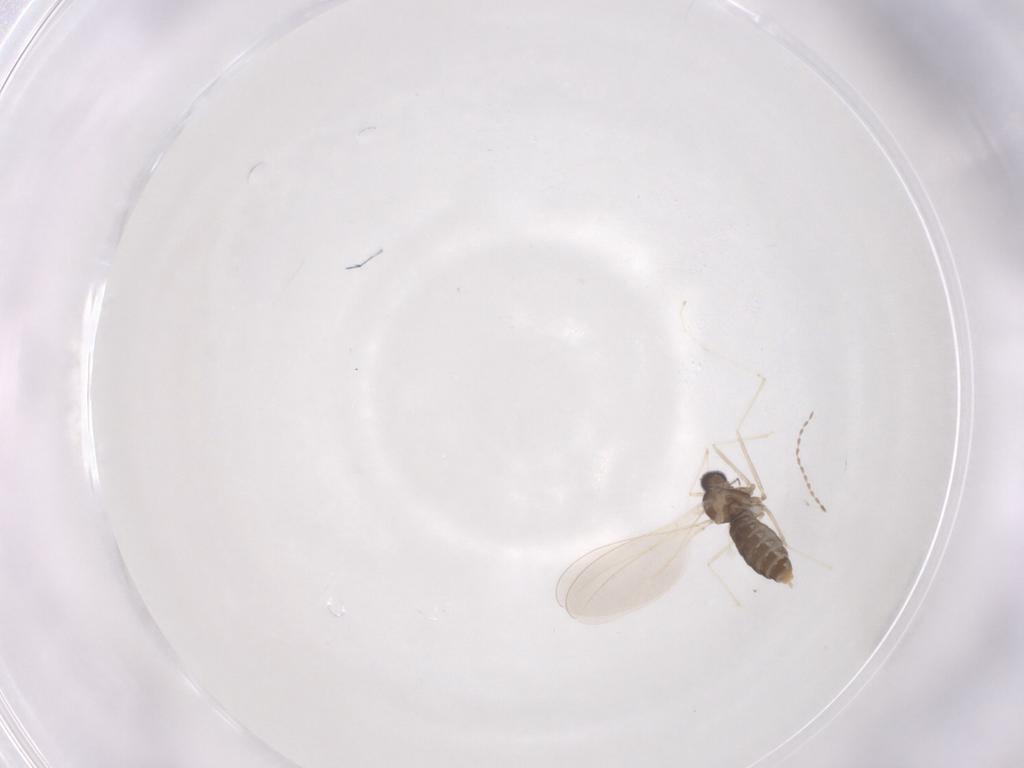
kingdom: Animalia
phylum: Arthropoda
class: Insecta
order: Diptera
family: Cecidomyiidae
